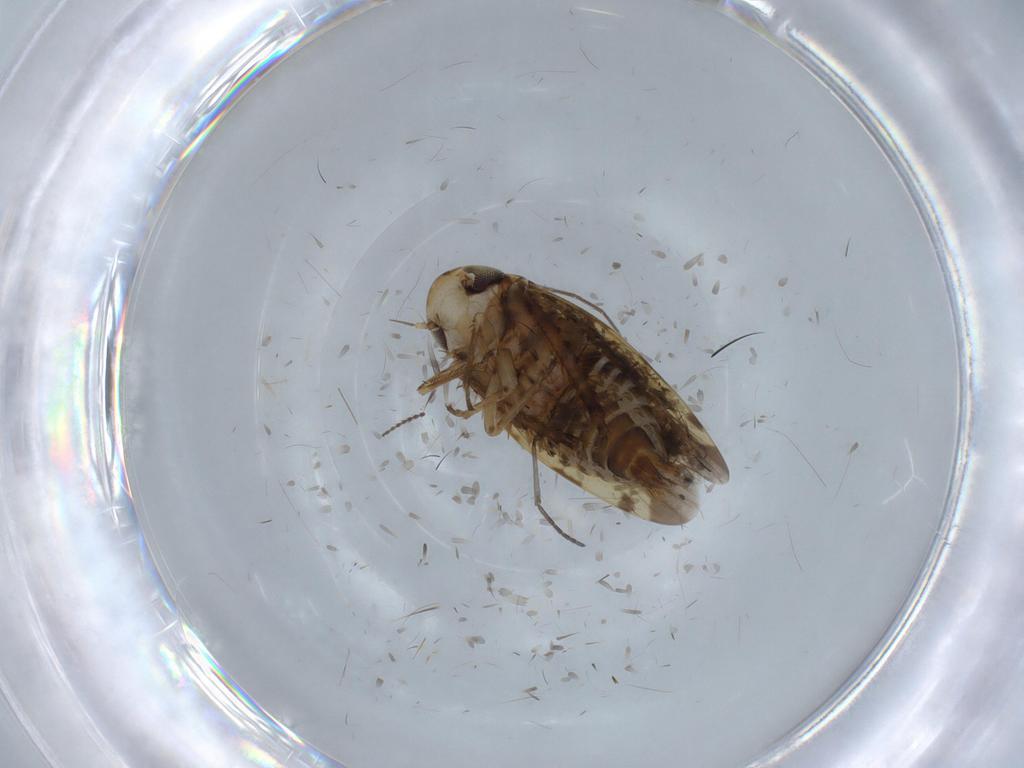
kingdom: Animalia
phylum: Arthropoda
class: Insecta
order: Hemiptera
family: Cicadellidae
